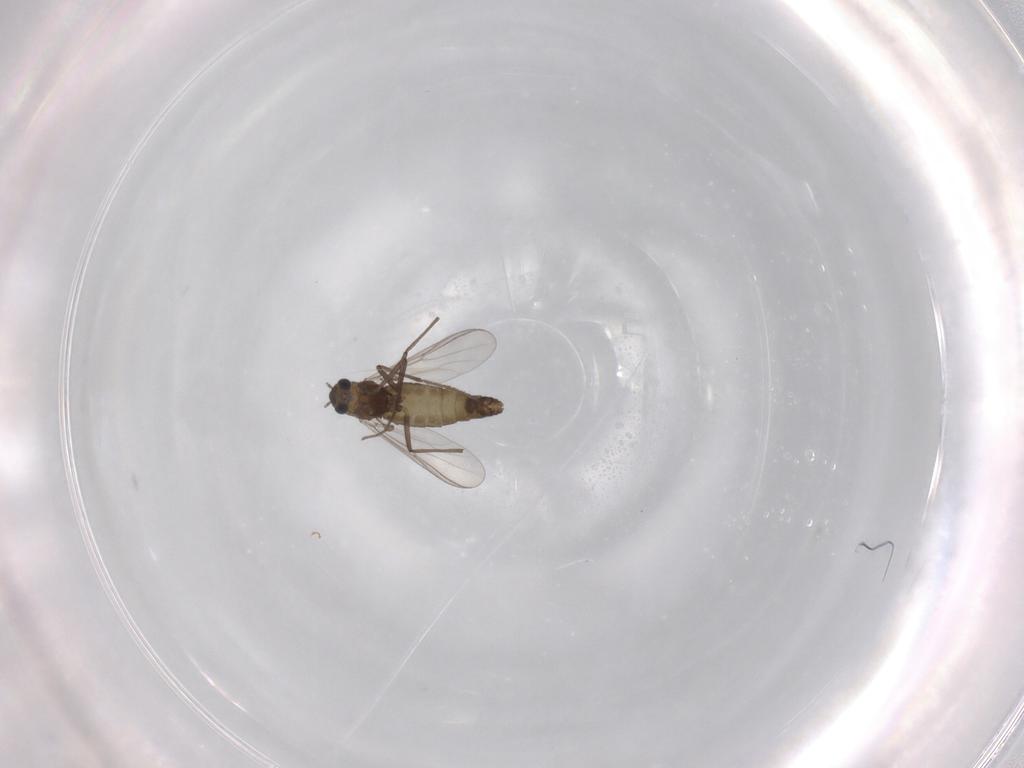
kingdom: Animalia
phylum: Arthropoda
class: Insecta
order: Diptera
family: Chironomidae
